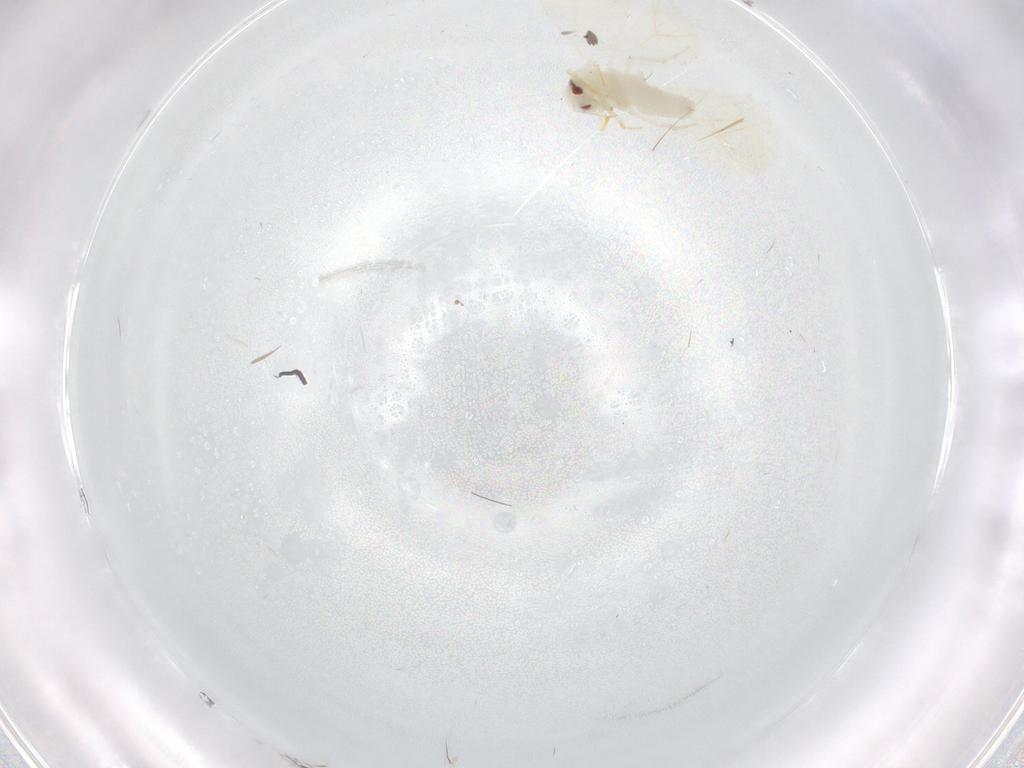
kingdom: Animalia
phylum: Arthropoda
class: Insecta
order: Hemiptera
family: Aleyrodidae
